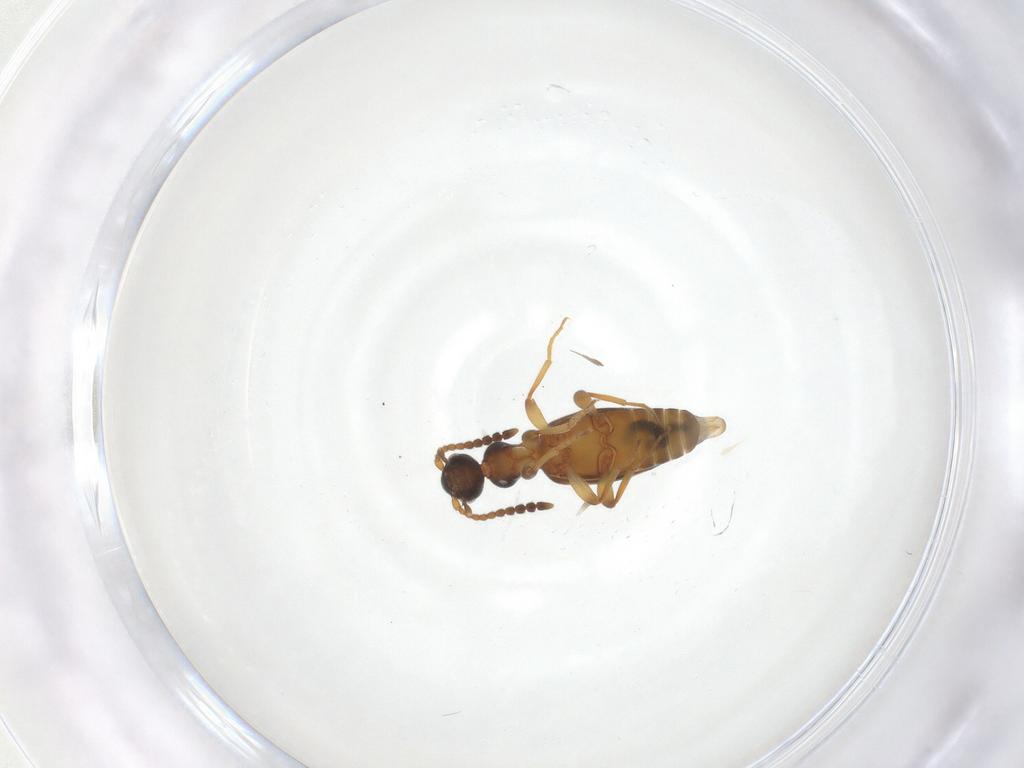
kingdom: Animalia
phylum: Arthropoda
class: Insecta
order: Coleoptera
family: Anthicidae
